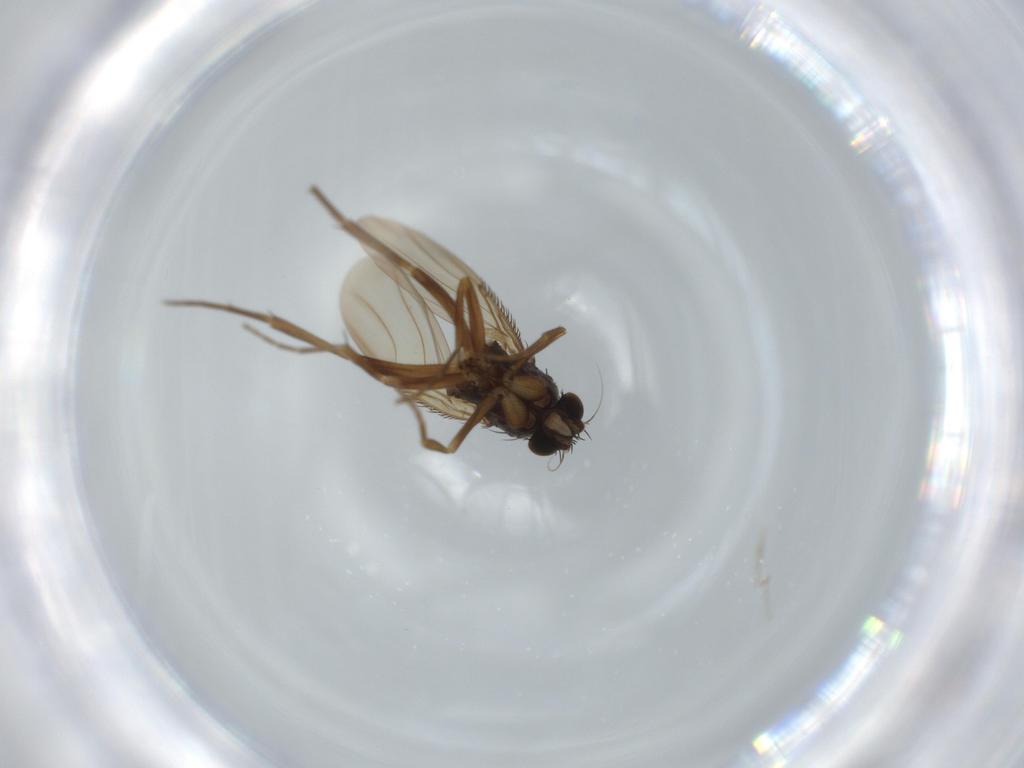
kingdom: Animalia
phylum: Arthropoda
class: Insecta
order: Diptera
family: Phoridae
